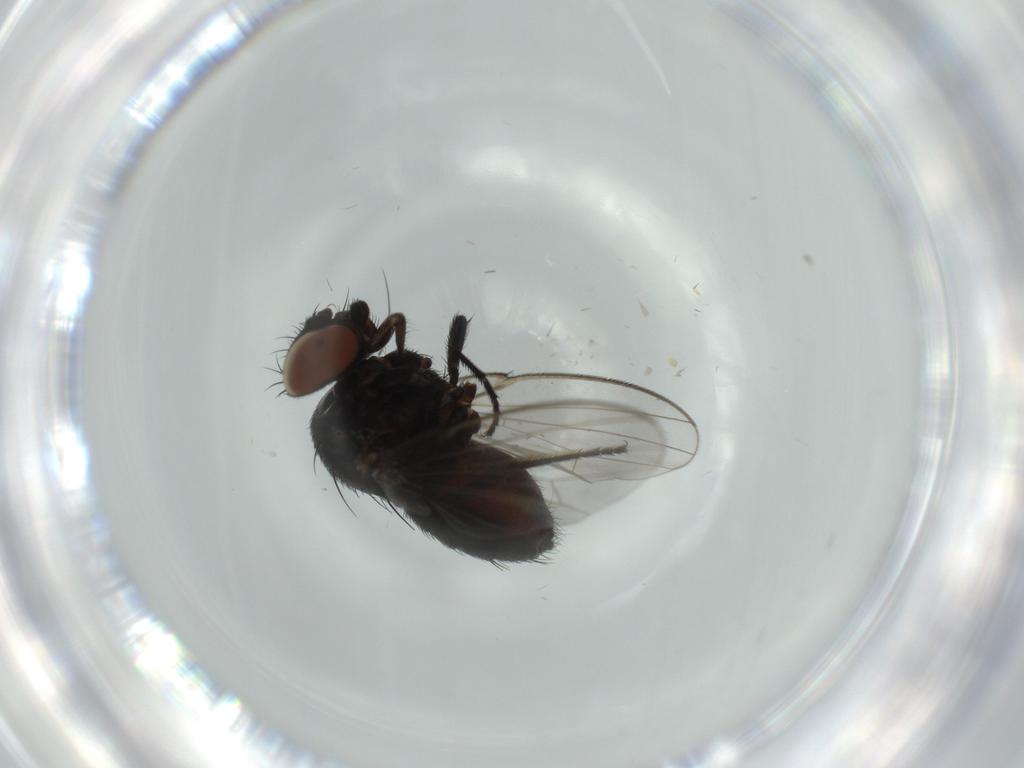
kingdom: Animalia
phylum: Arthropoda
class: Insecta
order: Diptera
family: Milichiidae
